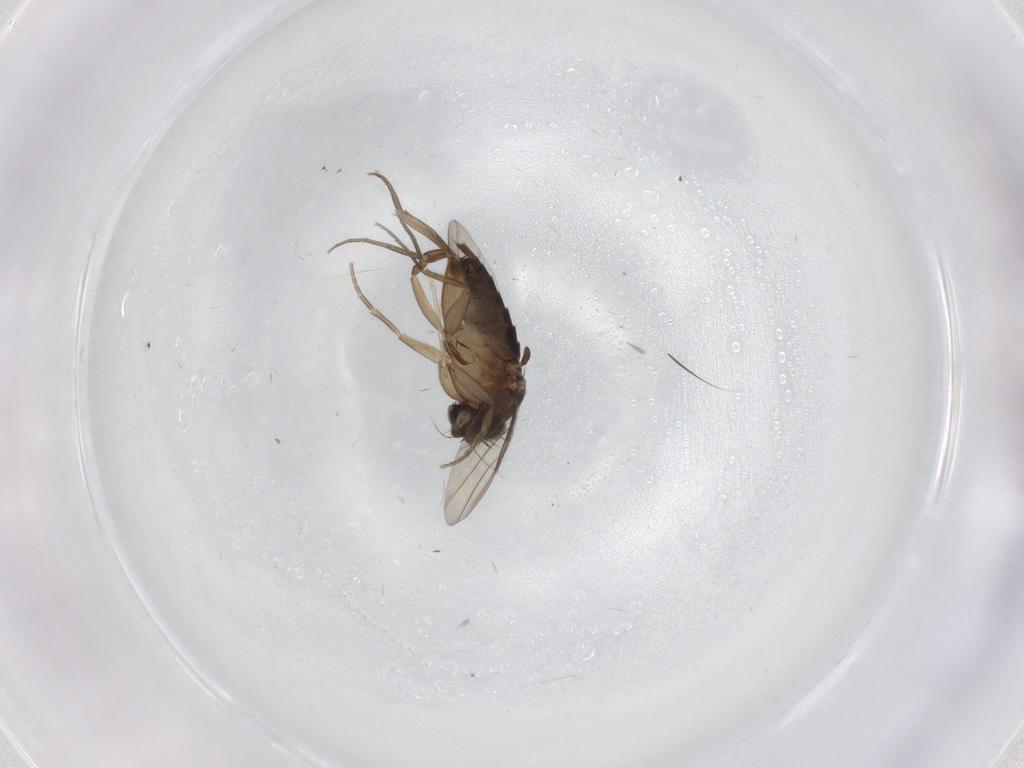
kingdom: Animalia
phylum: Arthropoda
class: Insecta
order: Diptera
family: Chironomidae
